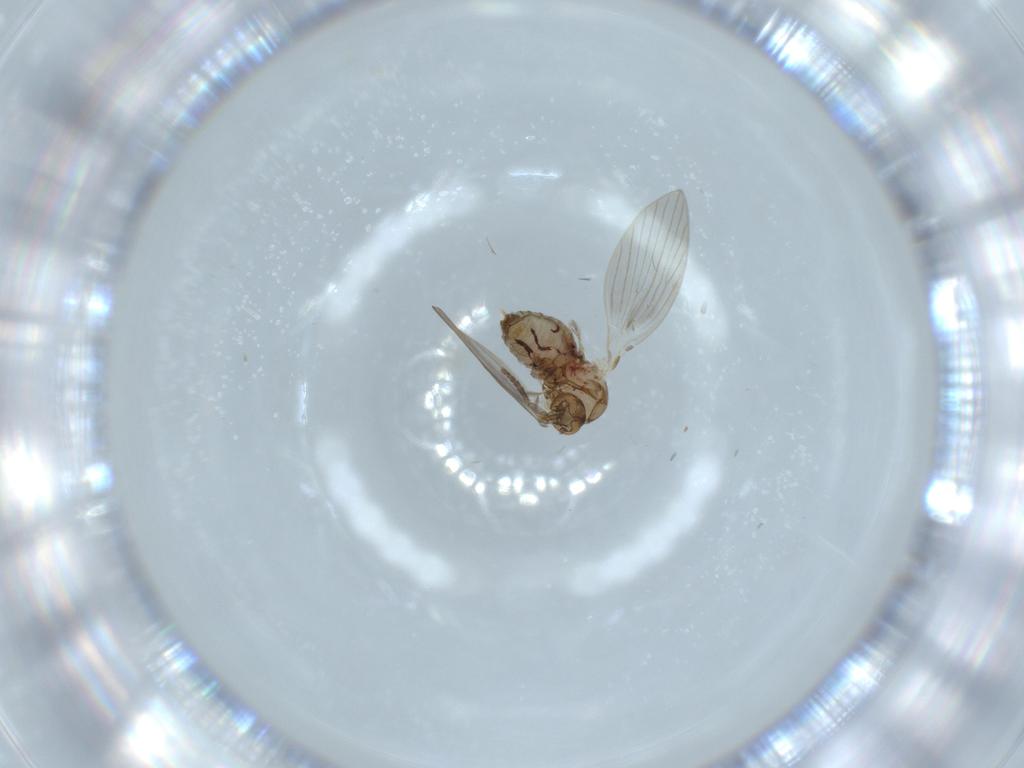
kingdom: Animalia
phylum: Arthropoda
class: Insecta
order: Diptera
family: Psychodidae
